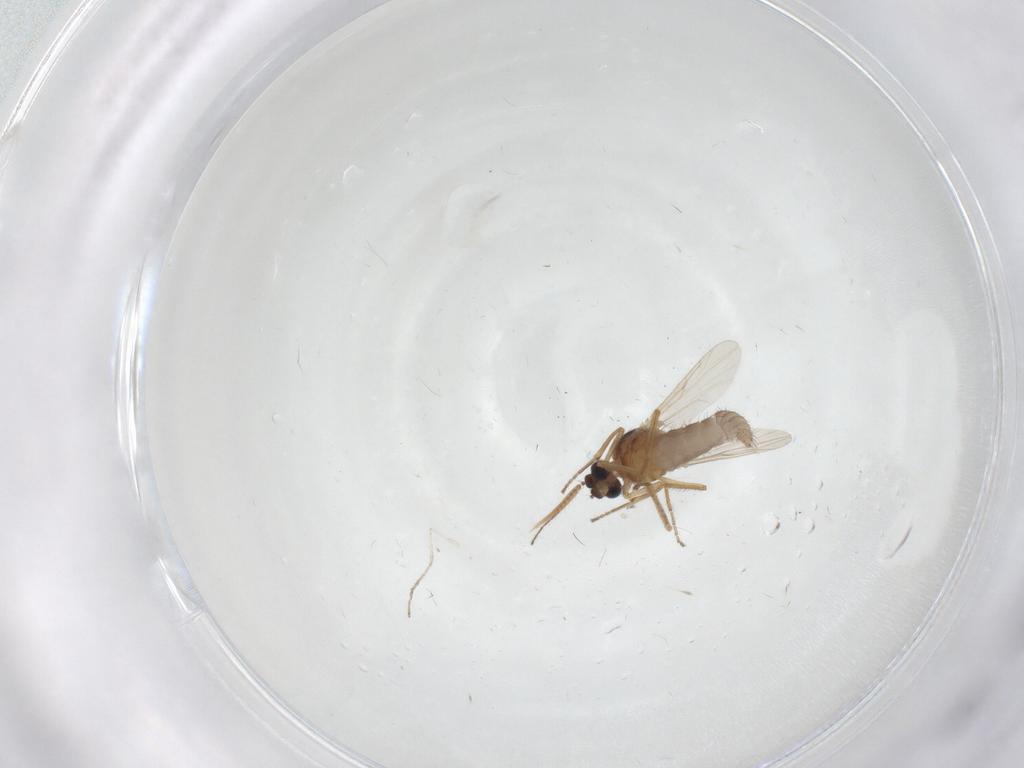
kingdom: Animalia
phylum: Arthropoda
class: Insecta
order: Diptera
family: Ceratopogonidae
